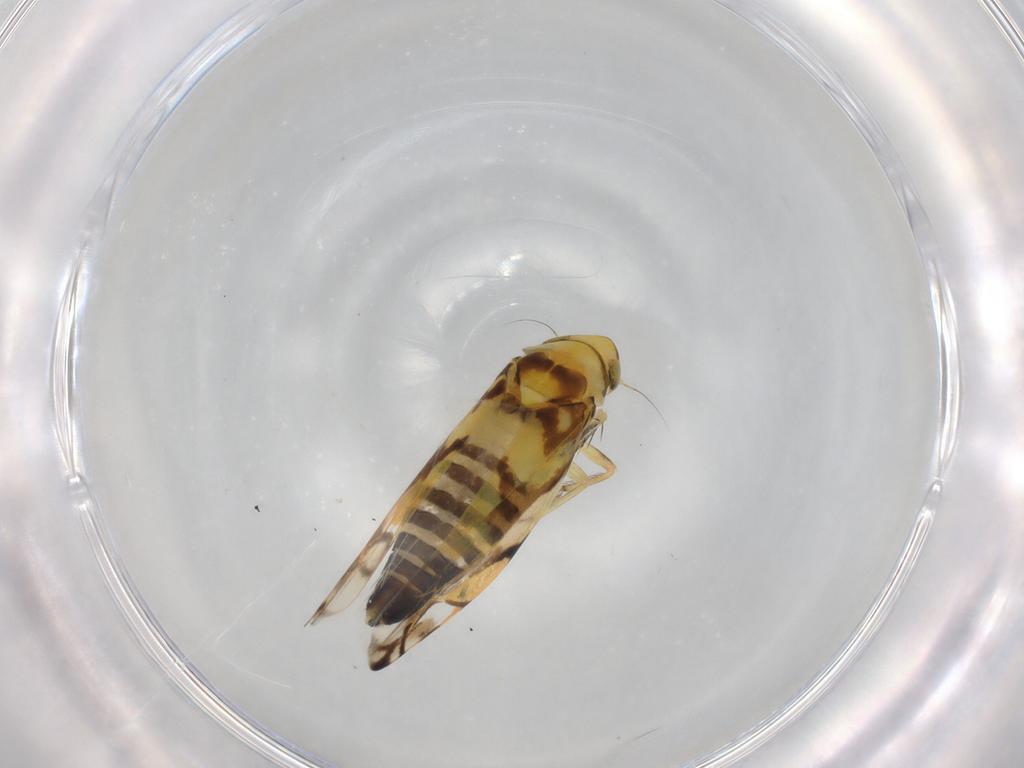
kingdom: Animalia
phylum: Arthropoda
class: Insecta
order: Hemiptera
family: Cicadellidae
